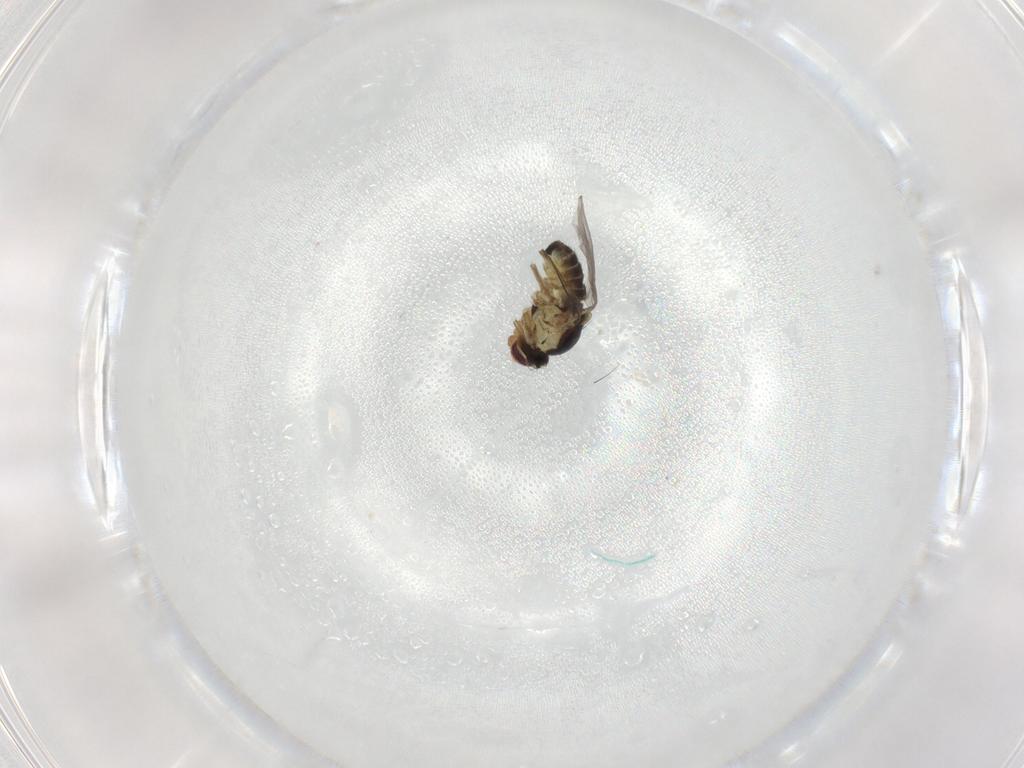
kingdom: Animalia
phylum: Arthropoda
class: Insecta
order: Diptera
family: Agromyzidae
